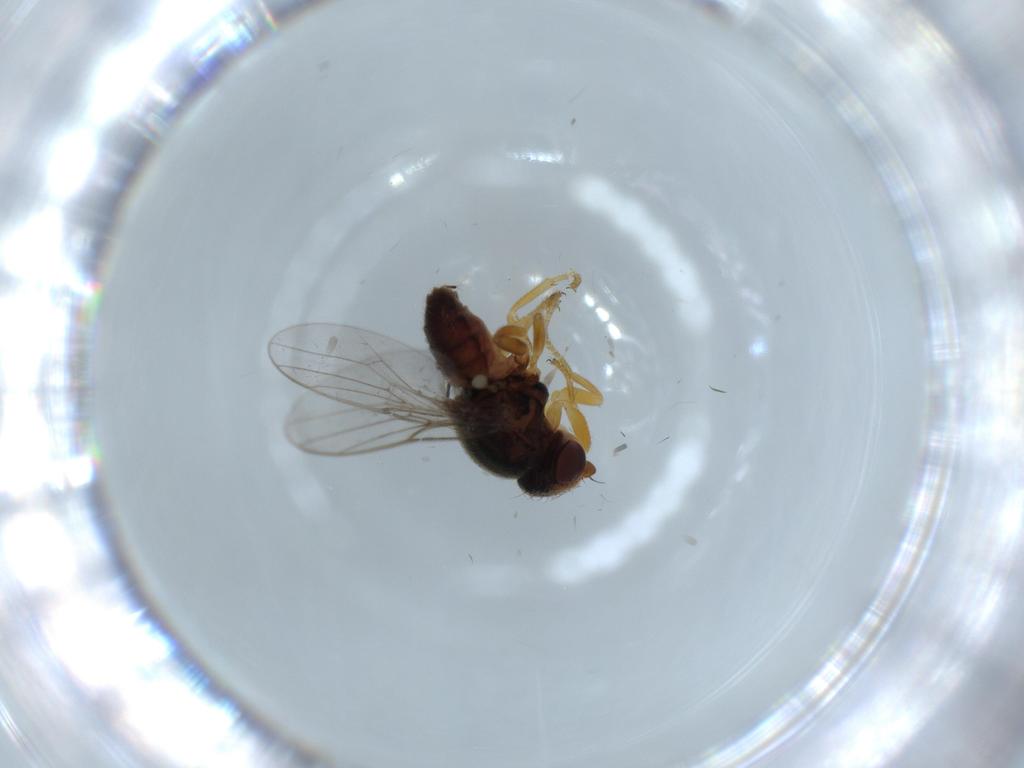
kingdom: Animalia
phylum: Arthropoda
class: Insecta
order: Diptera
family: Chloropidae
